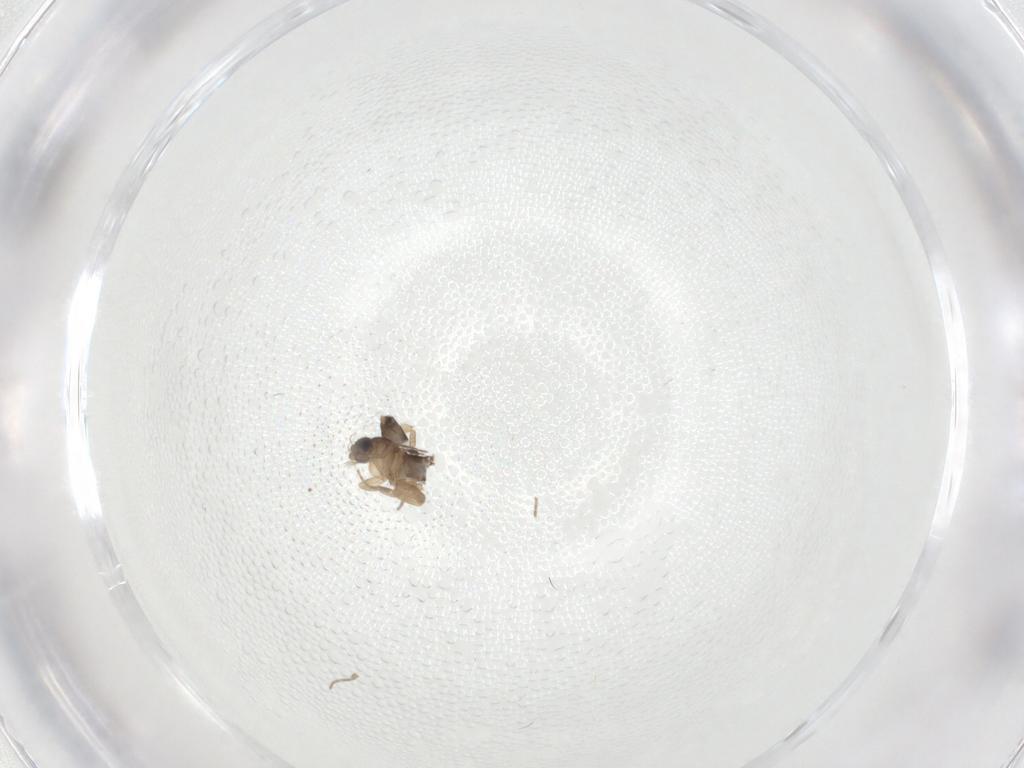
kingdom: Animalia
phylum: Arthropoda
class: Insecta
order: Diptera
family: Phoridae
